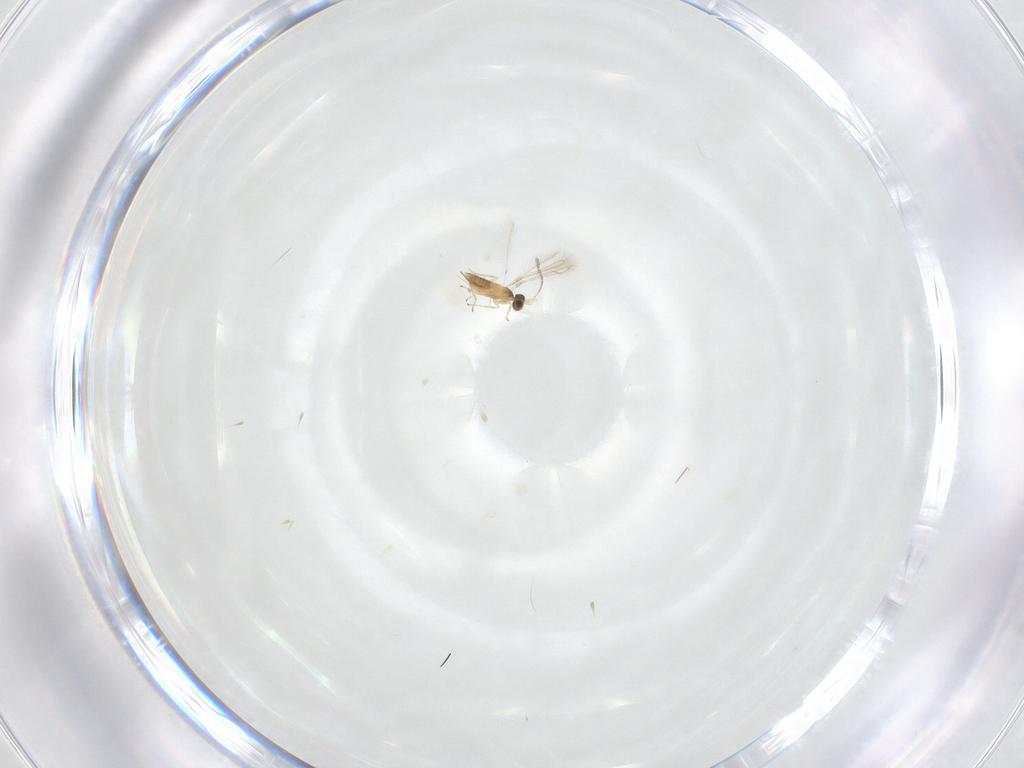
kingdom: Animalia
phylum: Arthropoda
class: Insecta
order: Hymenoptera
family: Mymaridae
